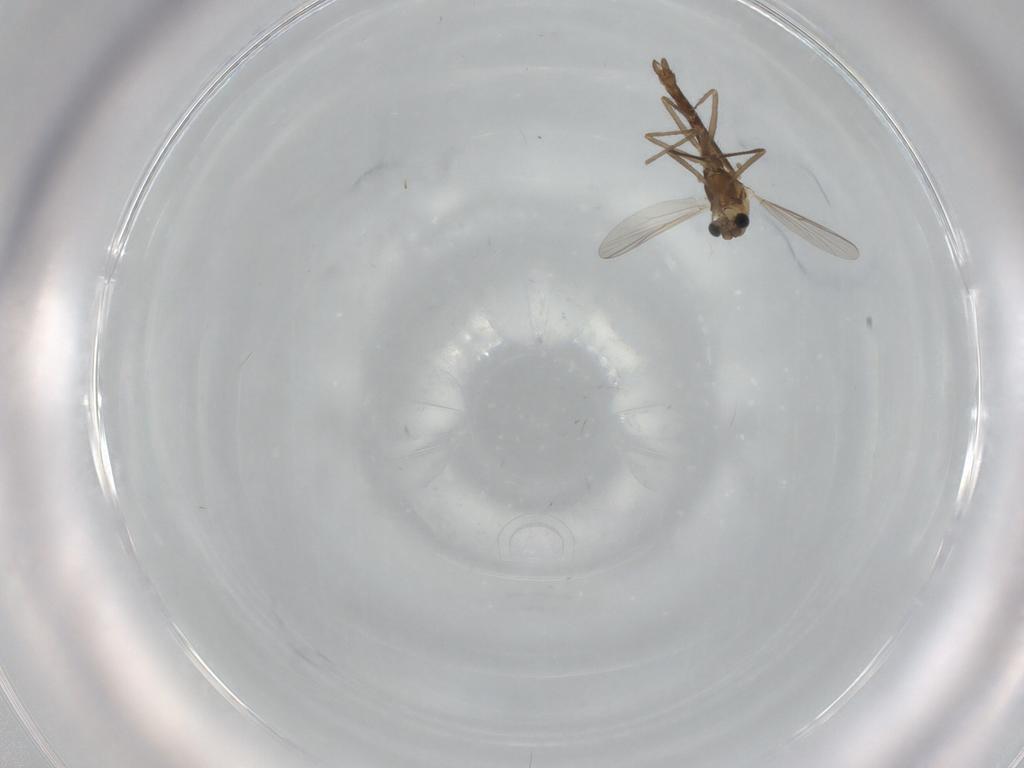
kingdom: Animalia
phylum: Arthropoda
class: Insecta
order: Diptera
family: Chironomidae
